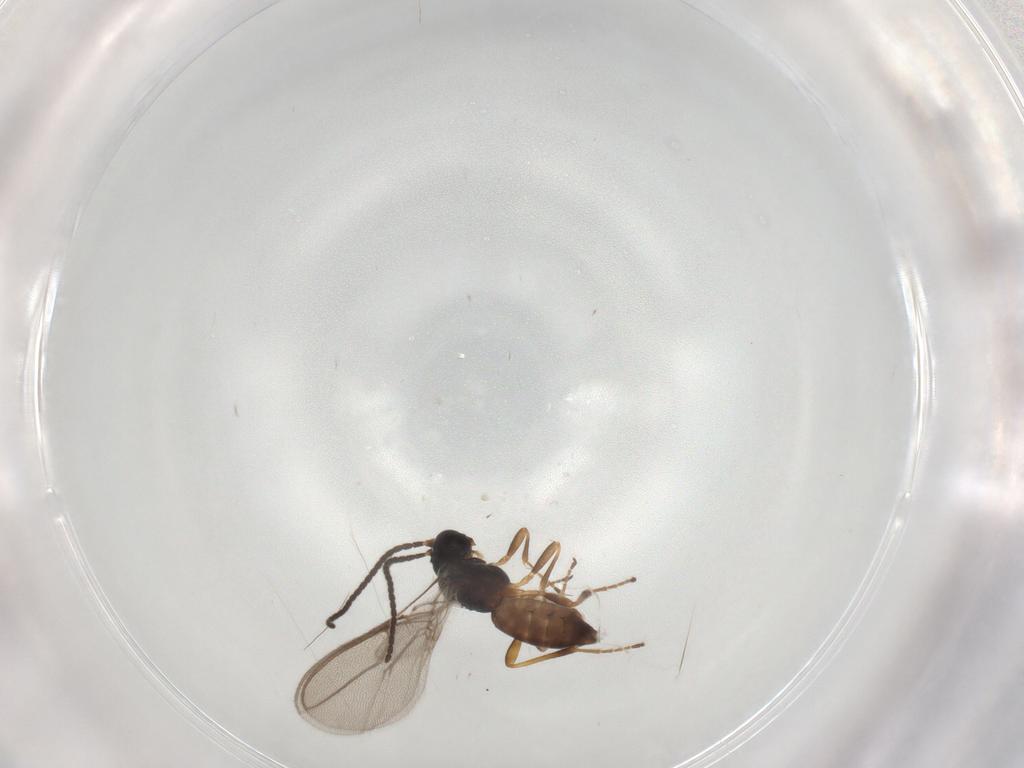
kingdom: Animalia
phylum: Arthropoda
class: Insecta
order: Hymenoptera
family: Braconidae
